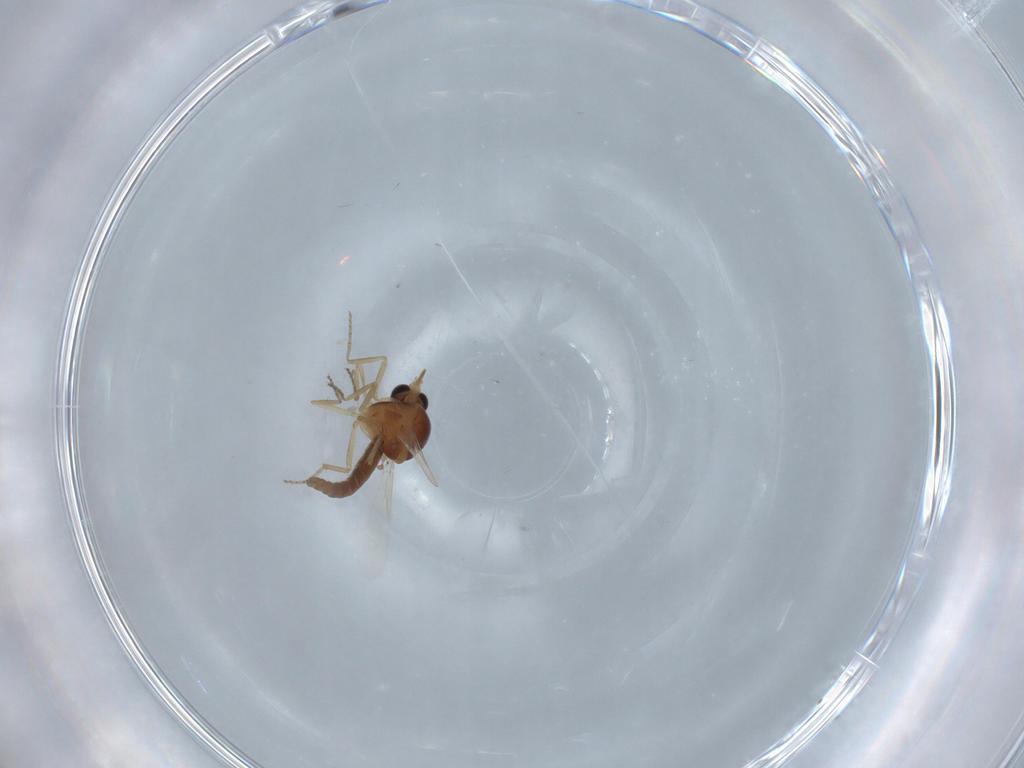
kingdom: Animalia
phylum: Arthropoda
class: Insecta
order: Diptera
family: Ceratopogonidae
